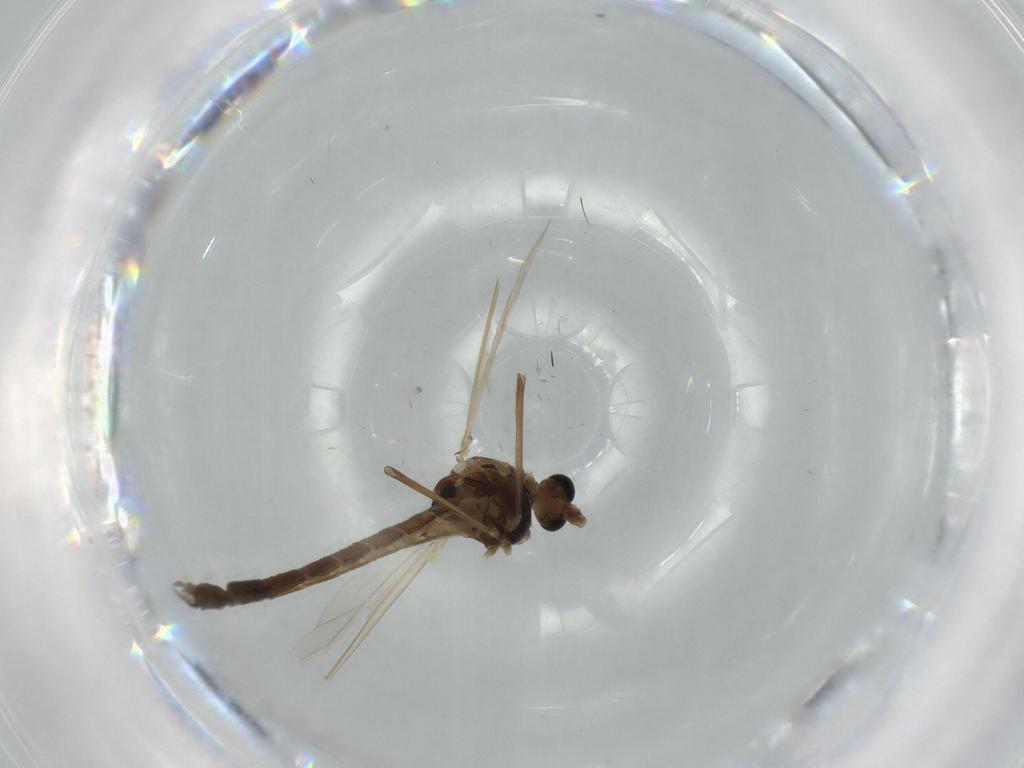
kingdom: Animalia
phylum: Arthropoda
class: Insecta
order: Diptera
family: Mycetophilidae
